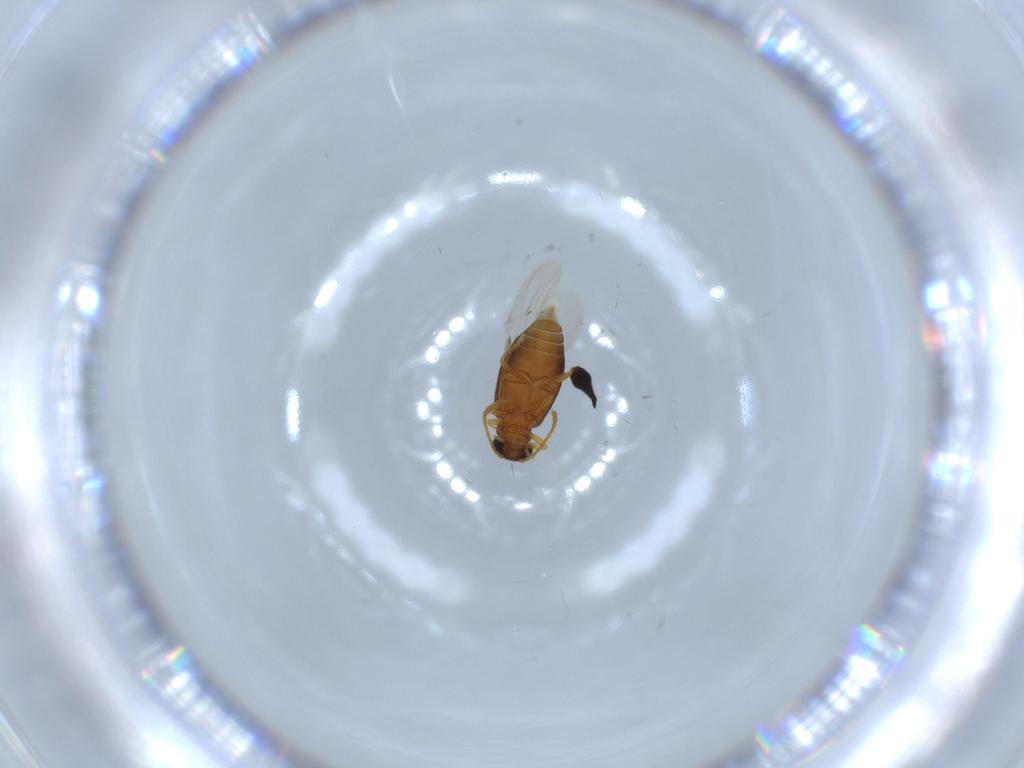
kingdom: Animalia
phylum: Arthropoda
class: Insecta
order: Coleoptera
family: Aderidae
